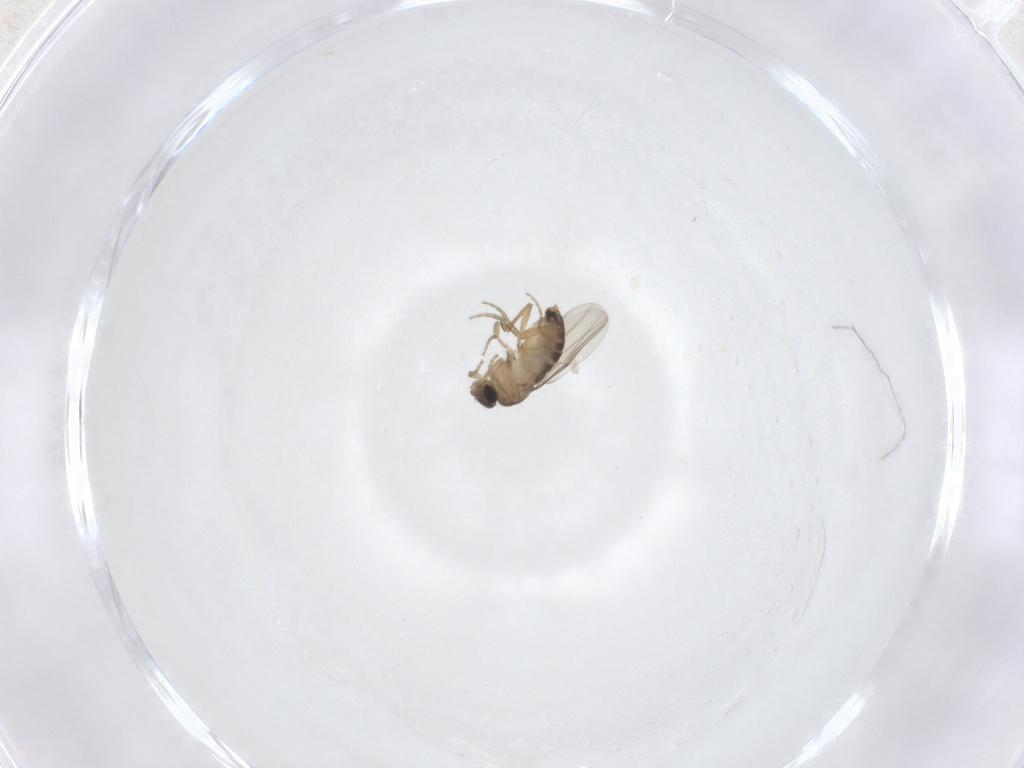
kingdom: Animalia
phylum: Arthropoda
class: Insecta
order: Diptera
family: Phoridae
